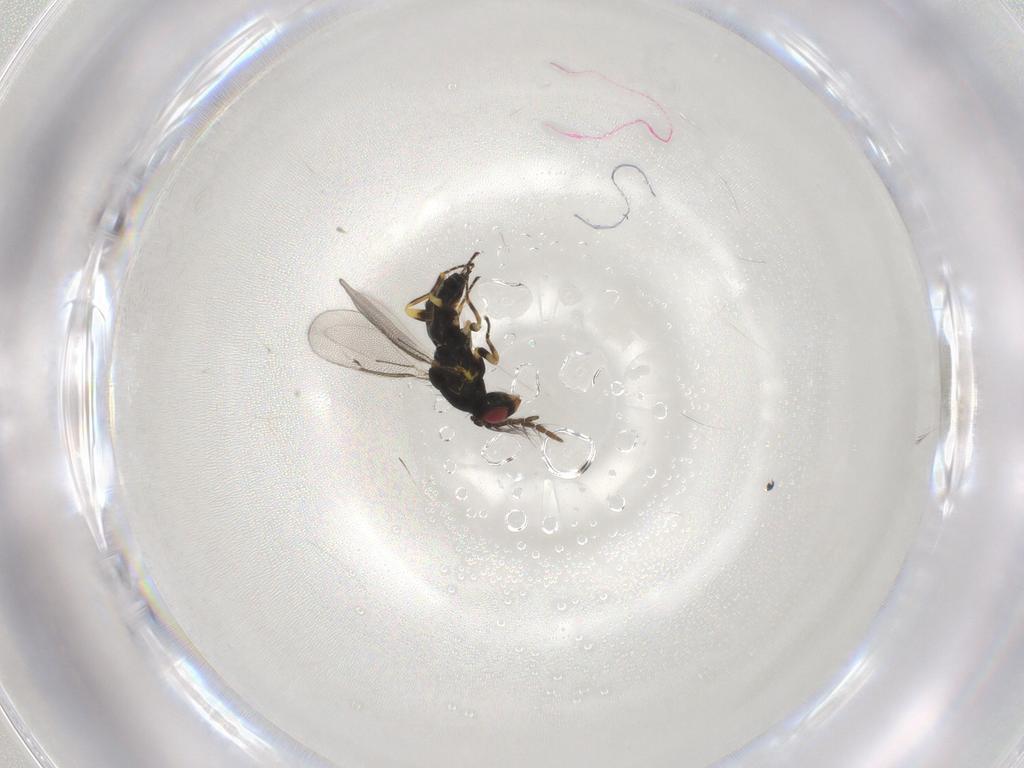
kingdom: Animalia
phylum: Arthropoda
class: Insecta
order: Hymenoptera
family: Eulophidae
